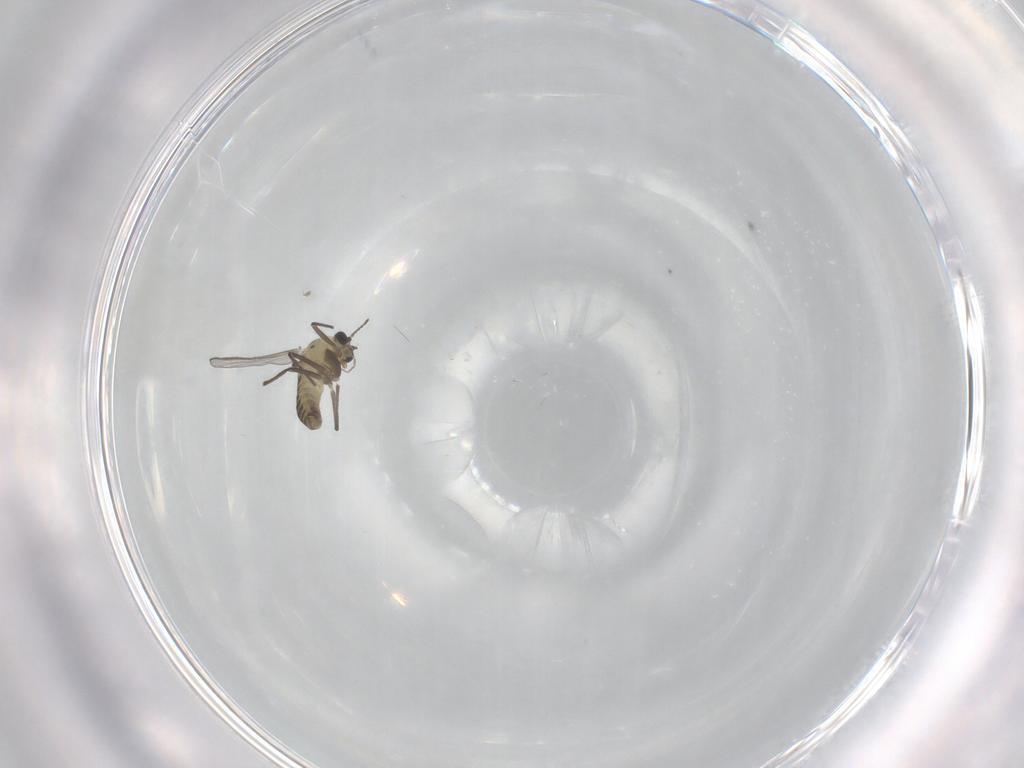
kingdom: Animalia
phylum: Arthropoda
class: Insecta
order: Diptera
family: Chironomidae
